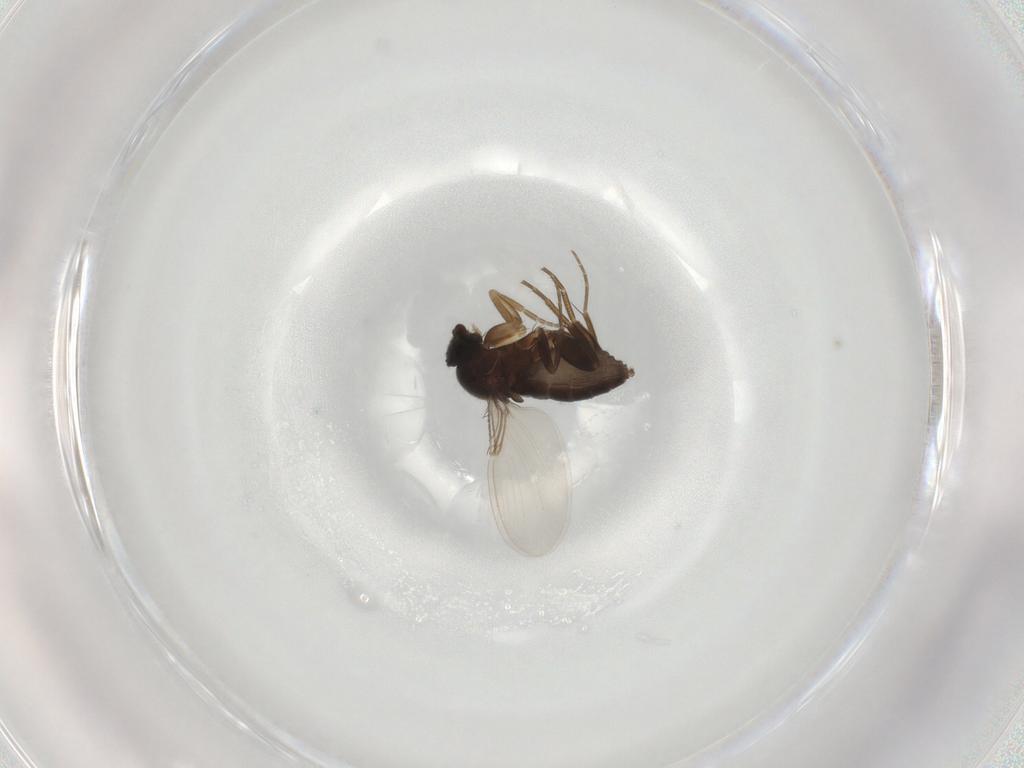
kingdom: Animalia
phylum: Arthropoda
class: Insecta
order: Diptera
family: Phoridae
